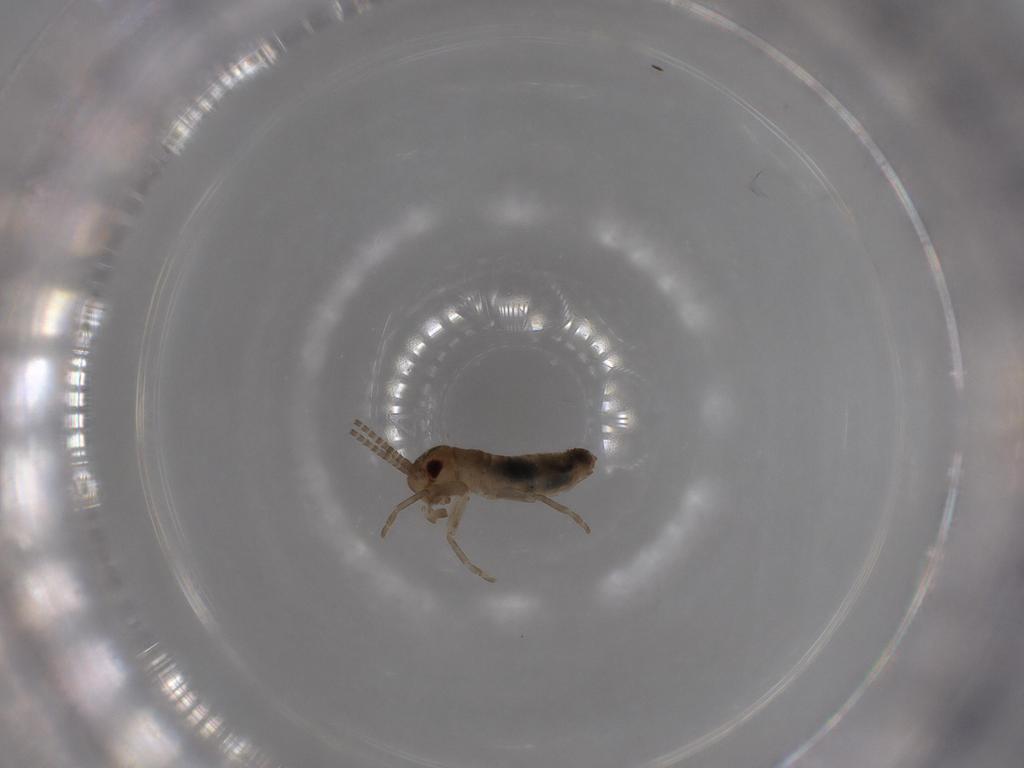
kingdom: Animalia
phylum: Arthropoda
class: Insecta
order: Orthoptera
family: Gryllidae
